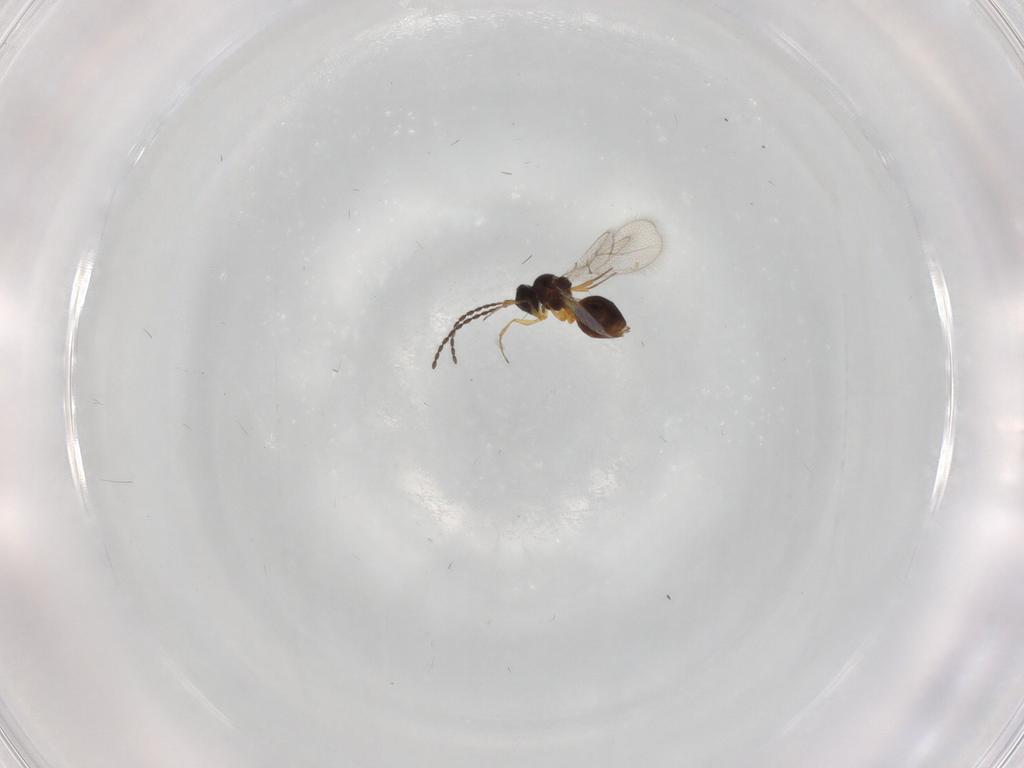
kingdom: Animalia
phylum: Arthropoda
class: Insecta
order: Hymenoptera
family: Figitidae
